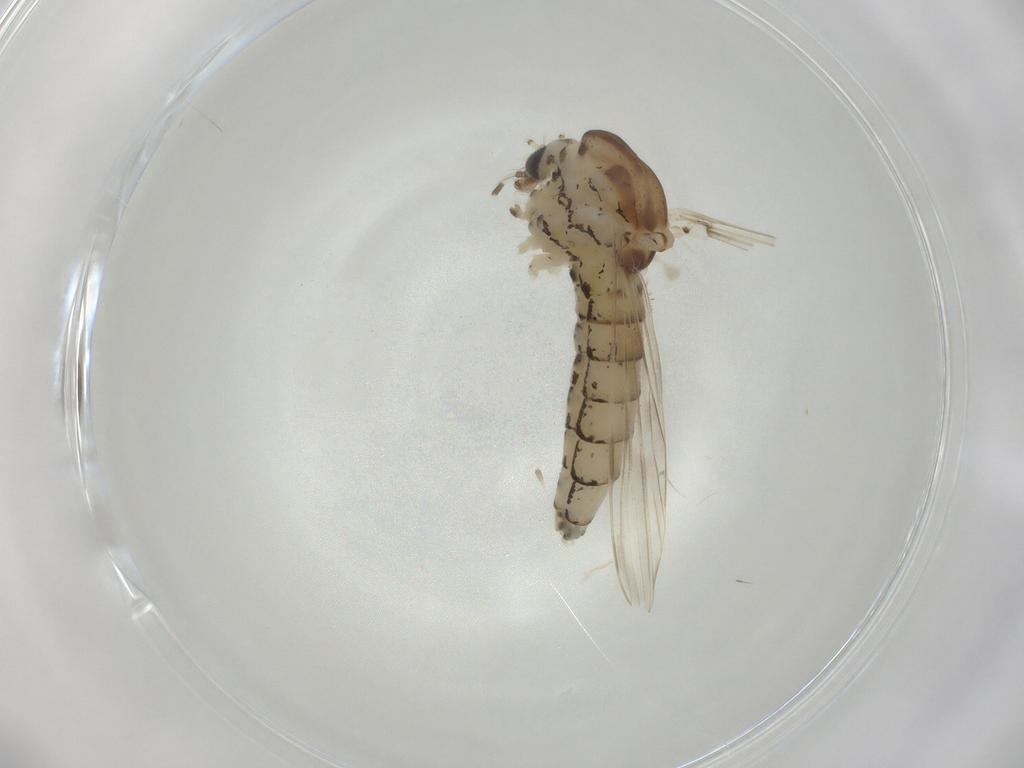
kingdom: Animalia
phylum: Arthropoda
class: Insecta
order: Diptera
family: Chaoboridae
